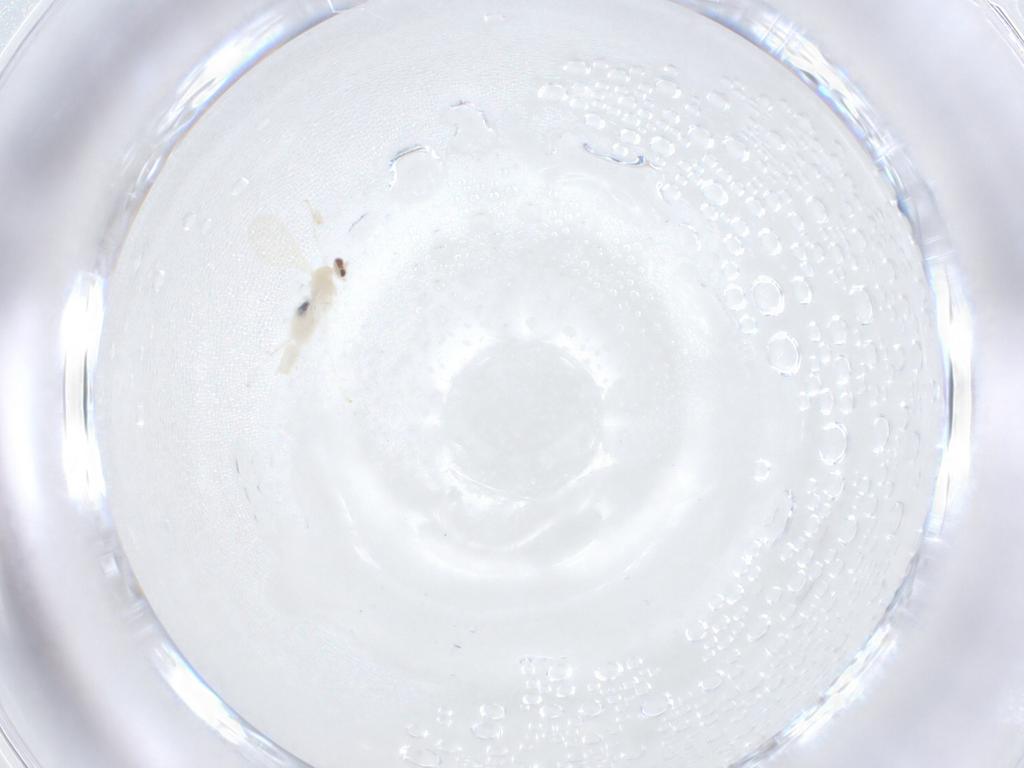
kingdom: Animalia
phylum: Arthropoda
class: Insecta
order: Diptera
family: Cecidomyiidae
